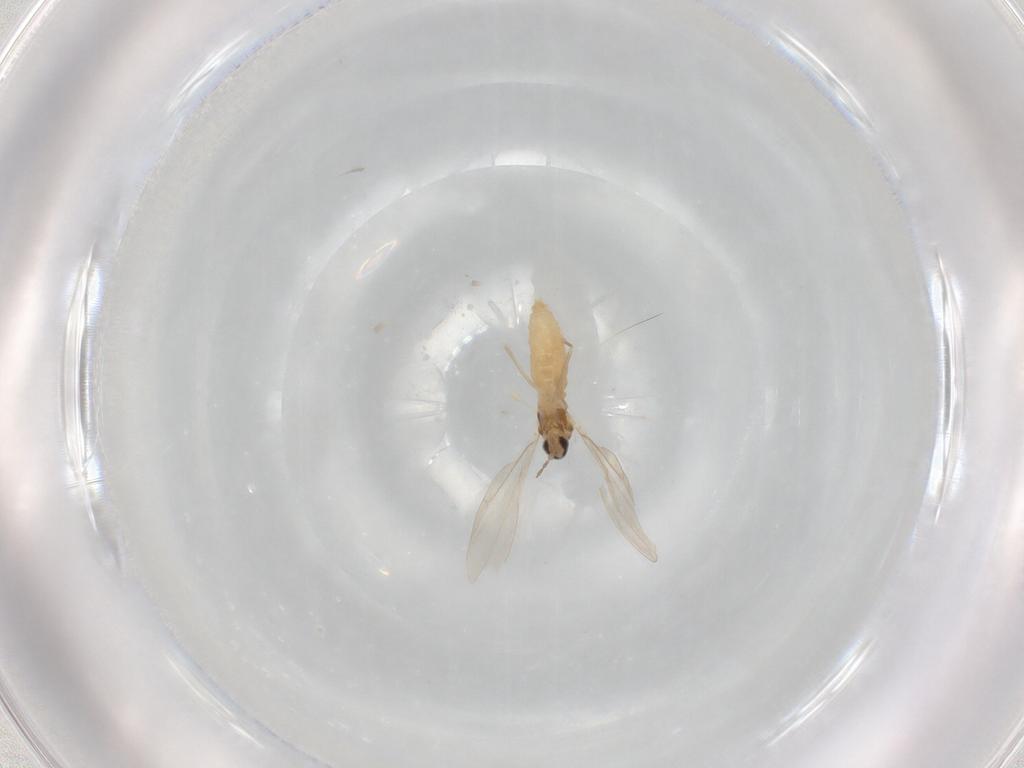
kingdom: Animalia
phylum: Arthropoda
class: Insecta
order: Diptera
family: Cecidomyiidae
